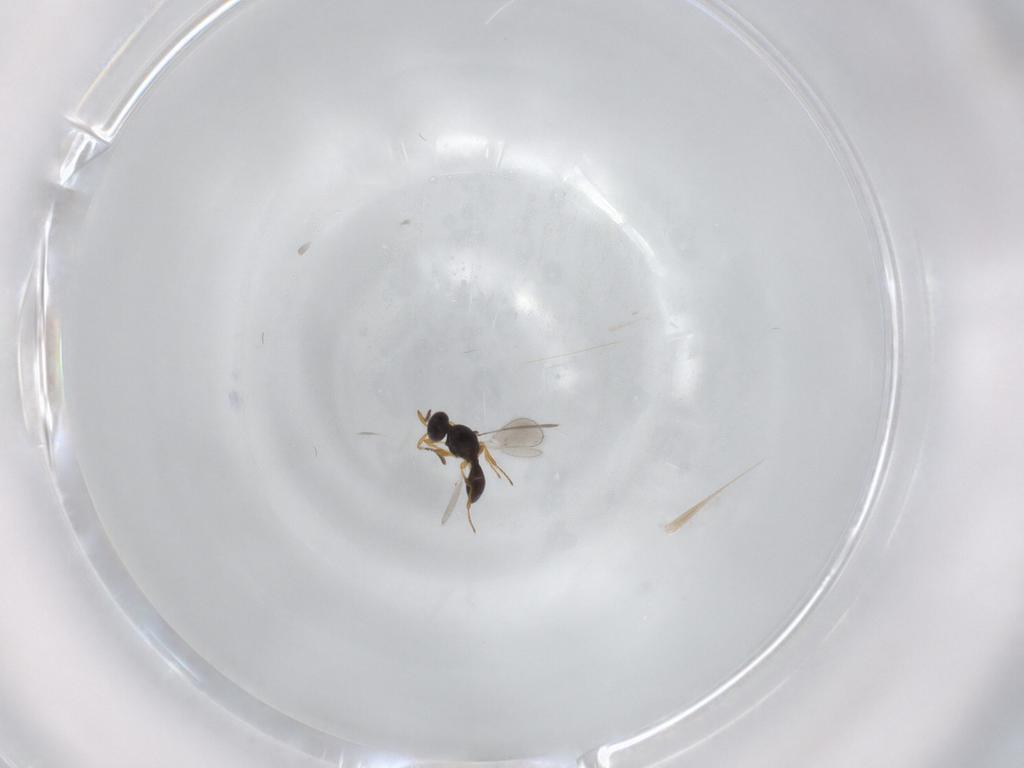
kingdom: Animalia
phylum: Arthropoda
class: Insecta
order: Hymenoptera
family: Platygastridae
